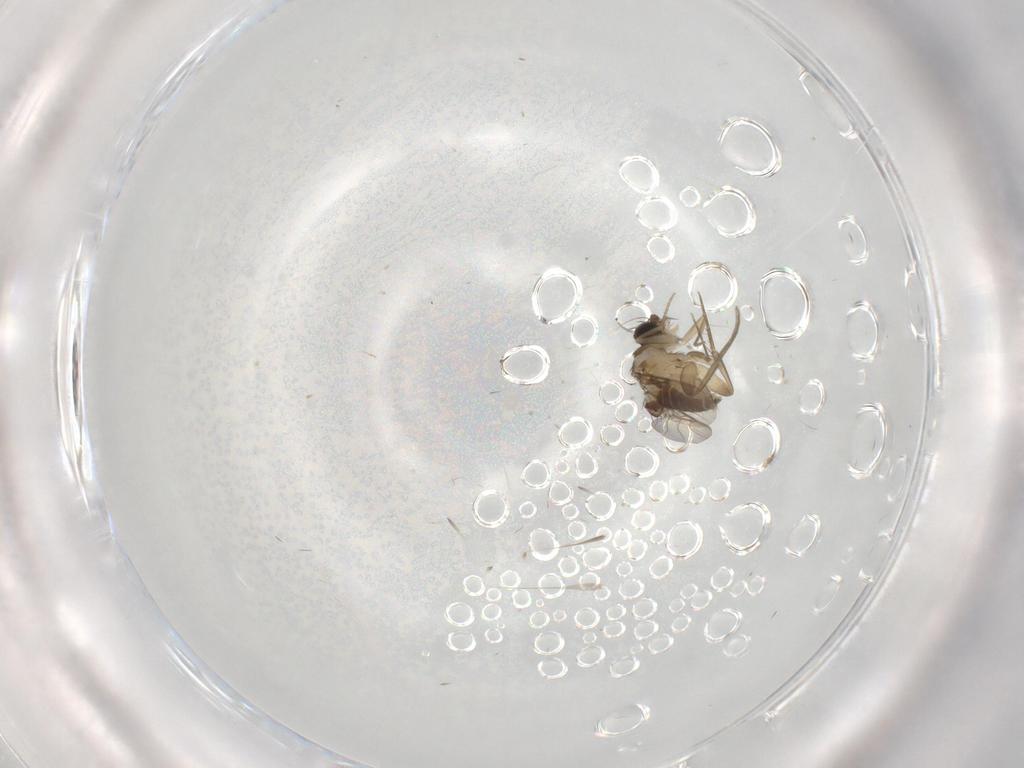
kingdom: Animalia
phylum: Arthropoda
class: Insecta
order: Diptera
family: Phoridae
